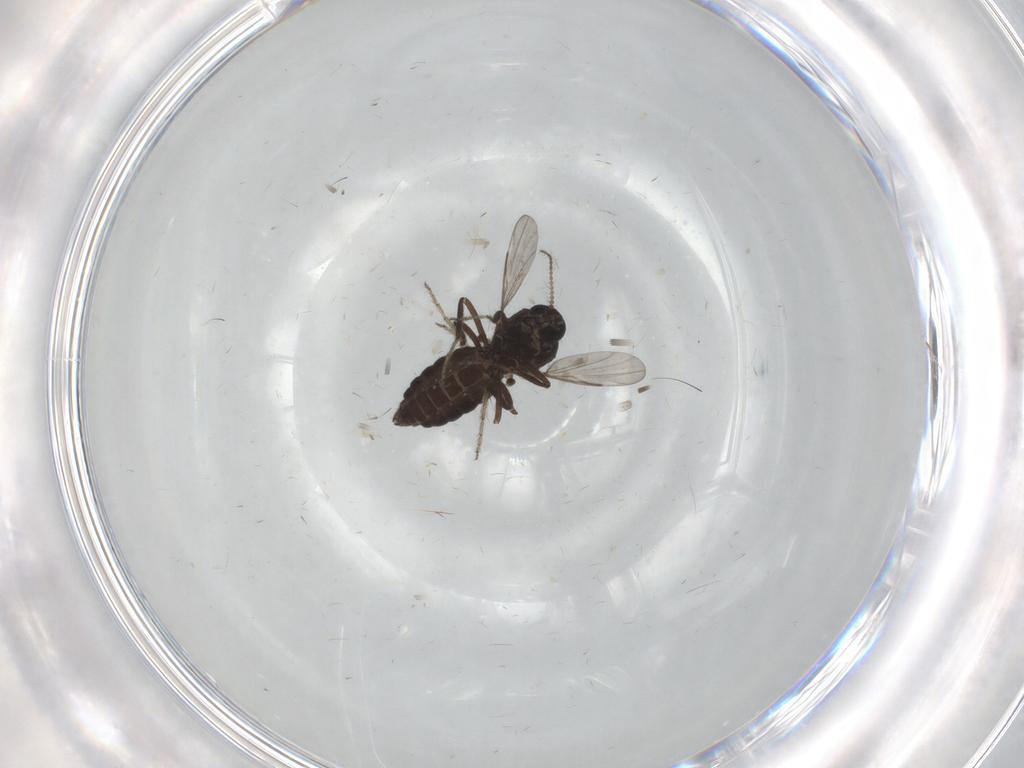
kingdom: Animalia
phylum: Arthropoda
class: Insecta
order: Diptera
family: Ceratopogonidae
